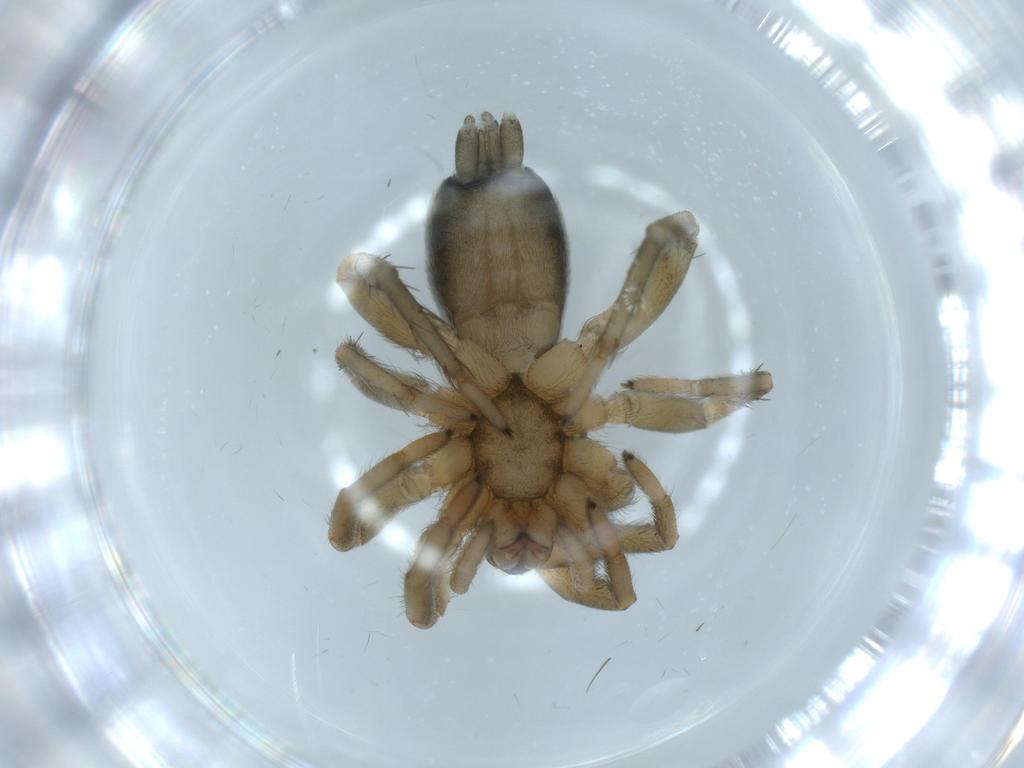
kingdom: Animalia
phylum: Arthropoda
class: Arachnida
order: Araneae
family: Gnaphosidae
